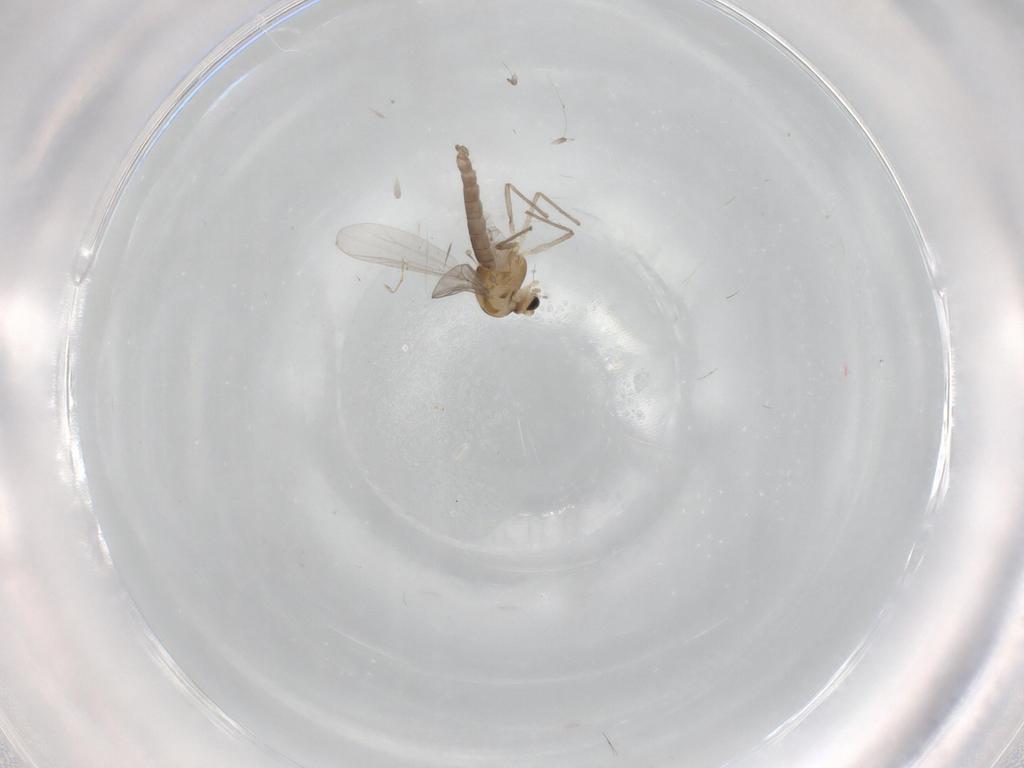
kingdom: Animalia
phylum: Arthropoda
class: Insecta
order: Diptera
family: Chironomidae
